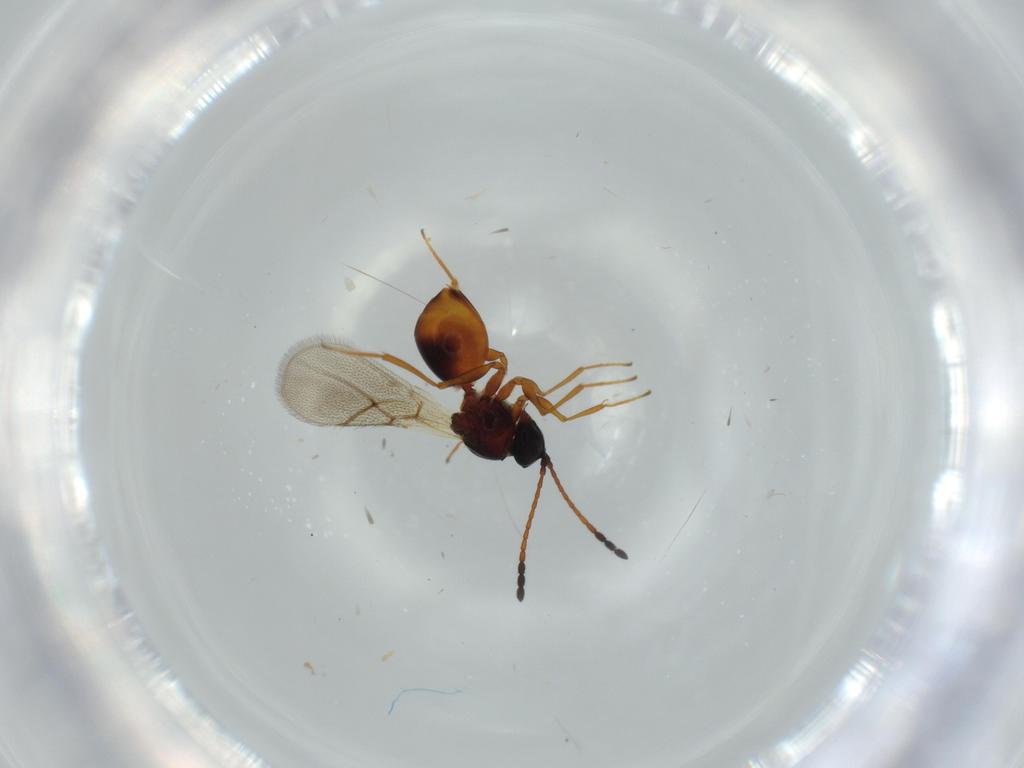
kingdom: Animalia
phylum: Arthropoda
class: Insecta
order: Hymenoptera
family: Figitidae
